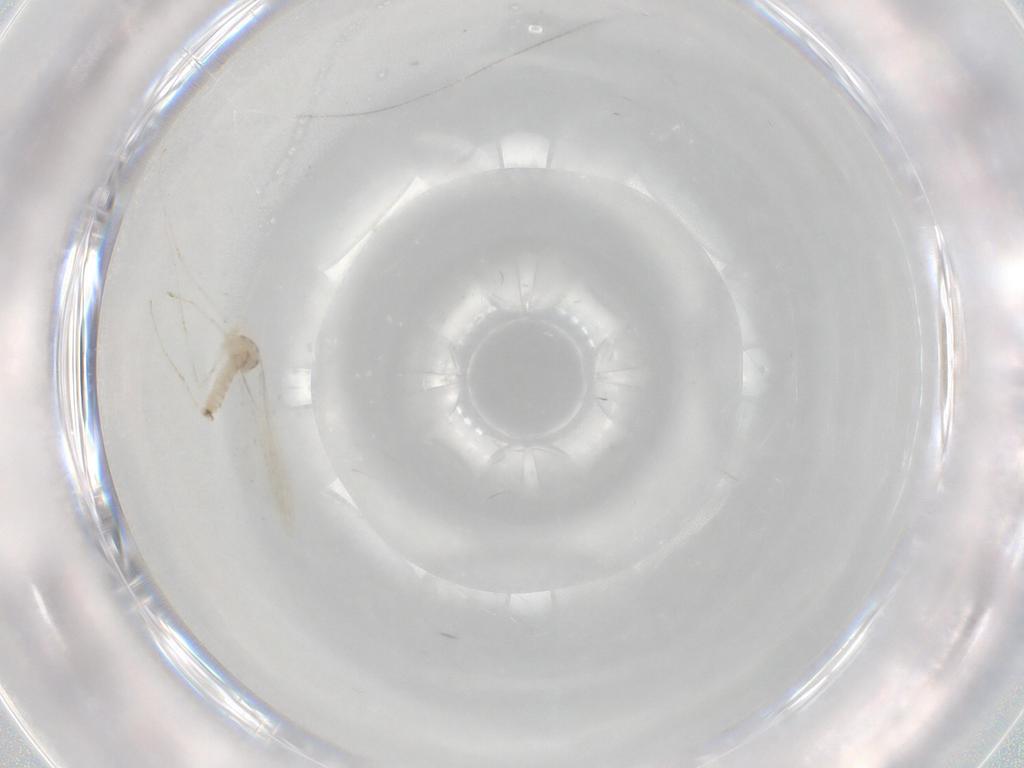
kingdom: Animalia
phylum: Arthropoda
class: Insecta
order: Diptera
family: Cecidomyiidae
